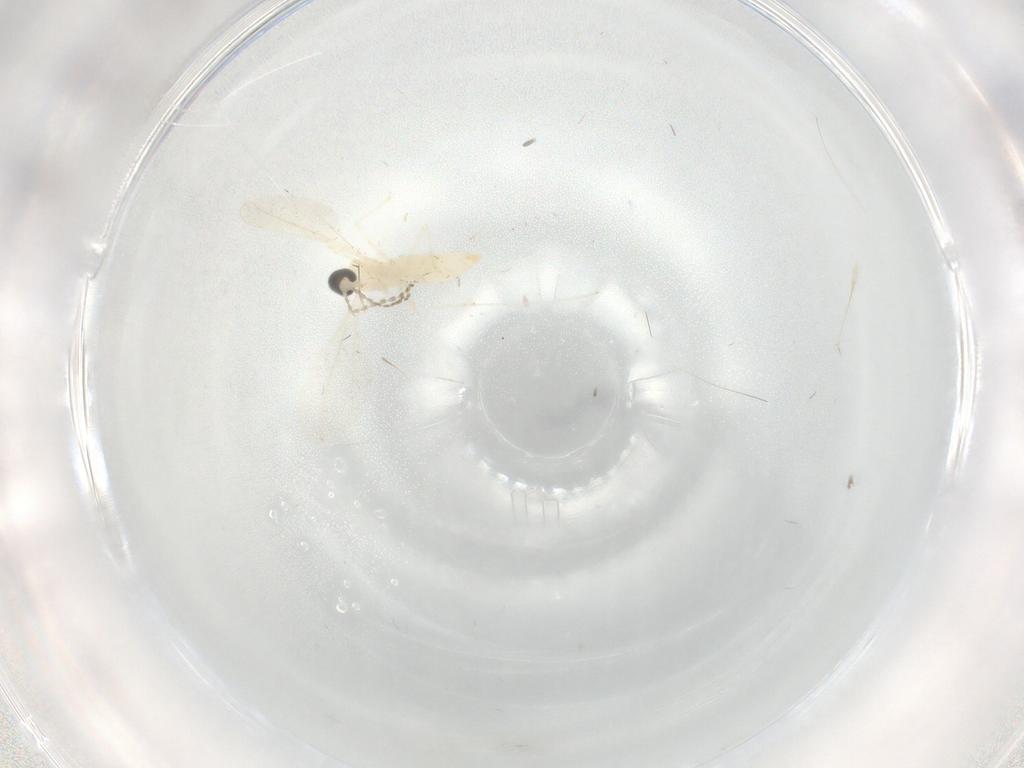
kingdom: Animalia
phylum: Arthropoda
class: Insecta
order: Diptera
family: Cecidomyiidae
